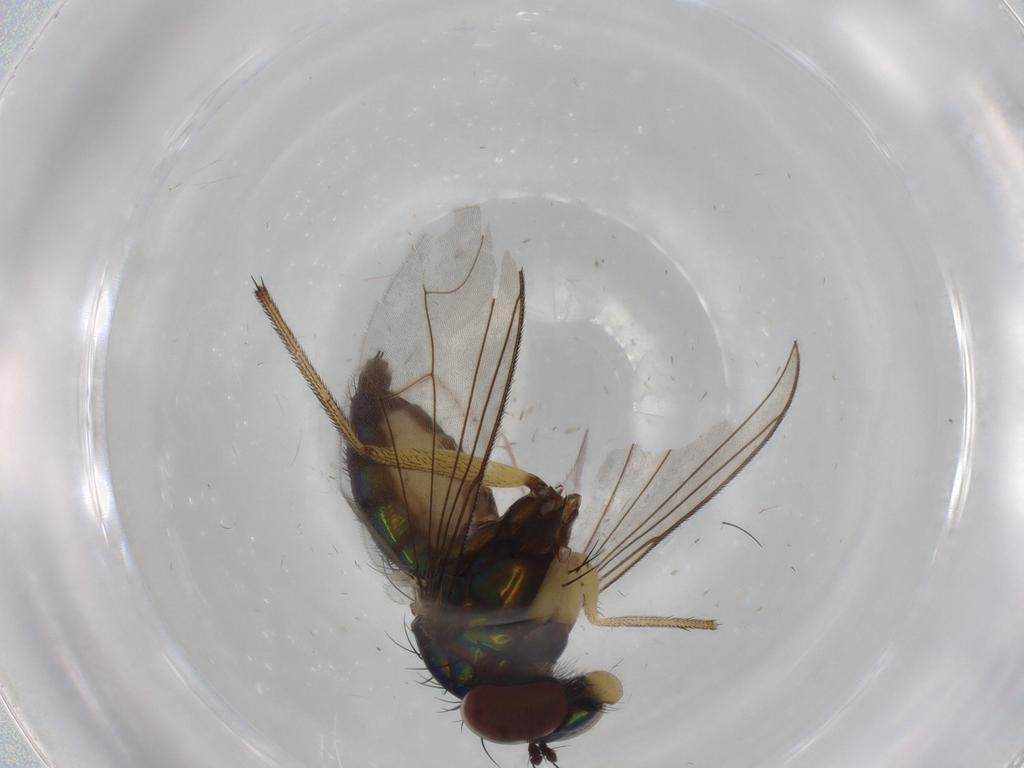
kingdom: Animalia
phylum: Arthropoda
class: Insecta
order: Diptera
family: Dolichopodidae
